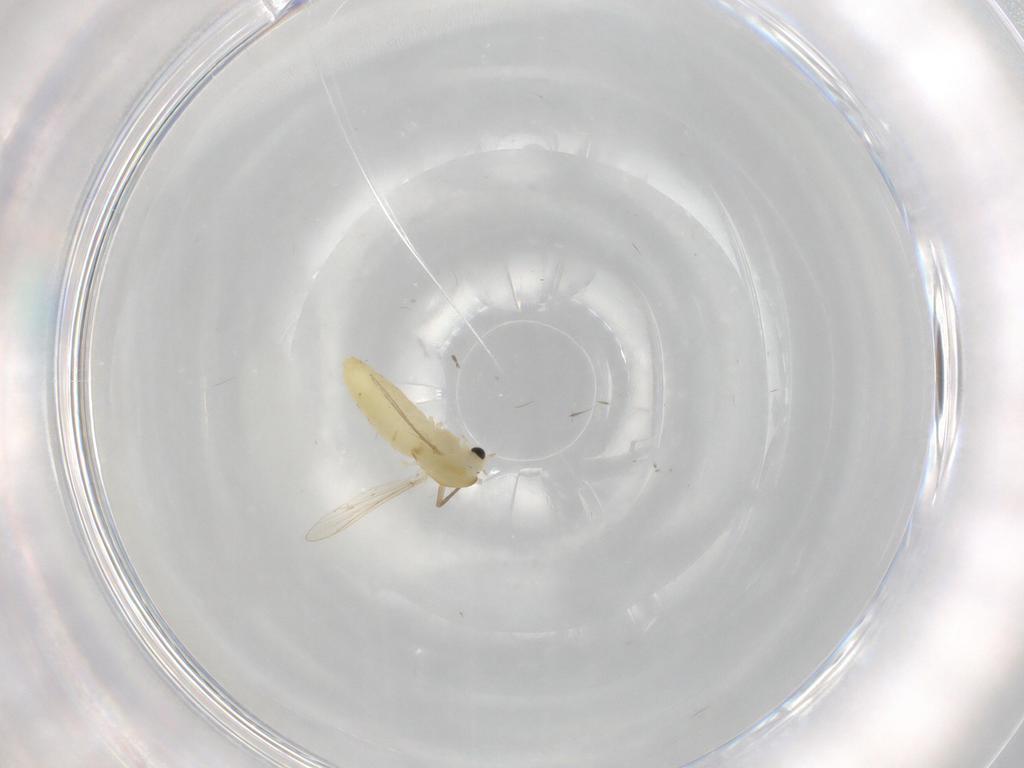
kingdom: Animalia
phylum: Arthropoda
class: Insecta
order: Diptera
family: Chironomidae
